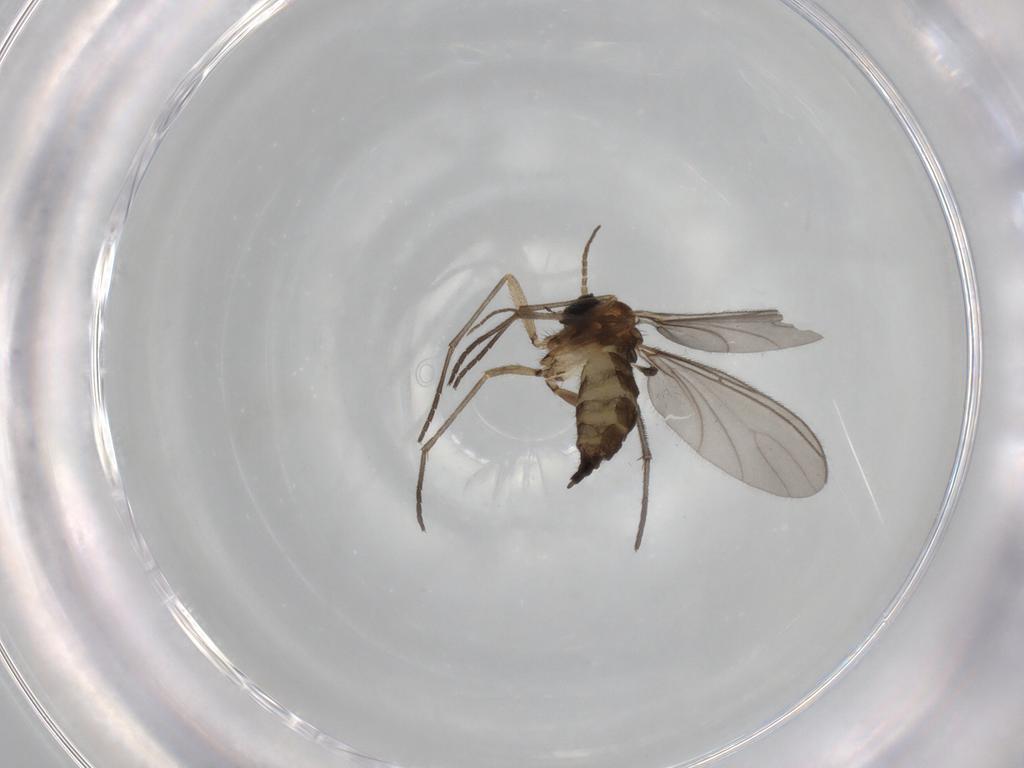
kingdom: Animalia
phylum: Arthropoda
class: Insecta
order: Diptera
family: Sciaridae
